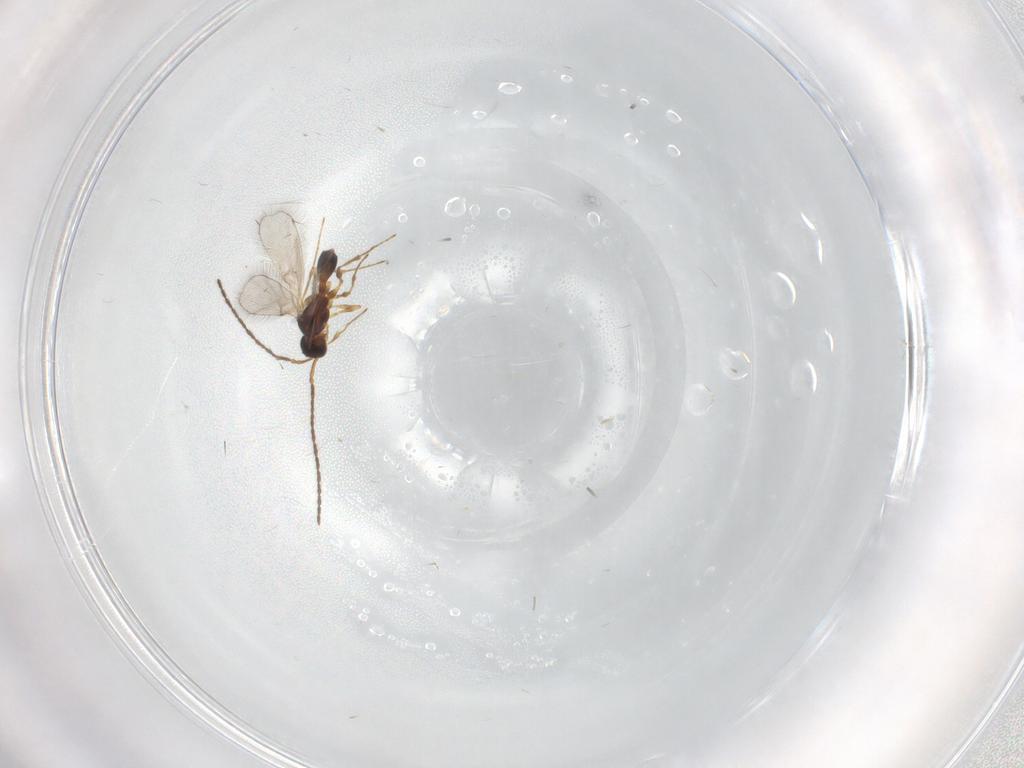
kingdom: Animalia
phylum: Arthropoda
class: Insecta
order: Hymenoptera
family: Diapriidae
